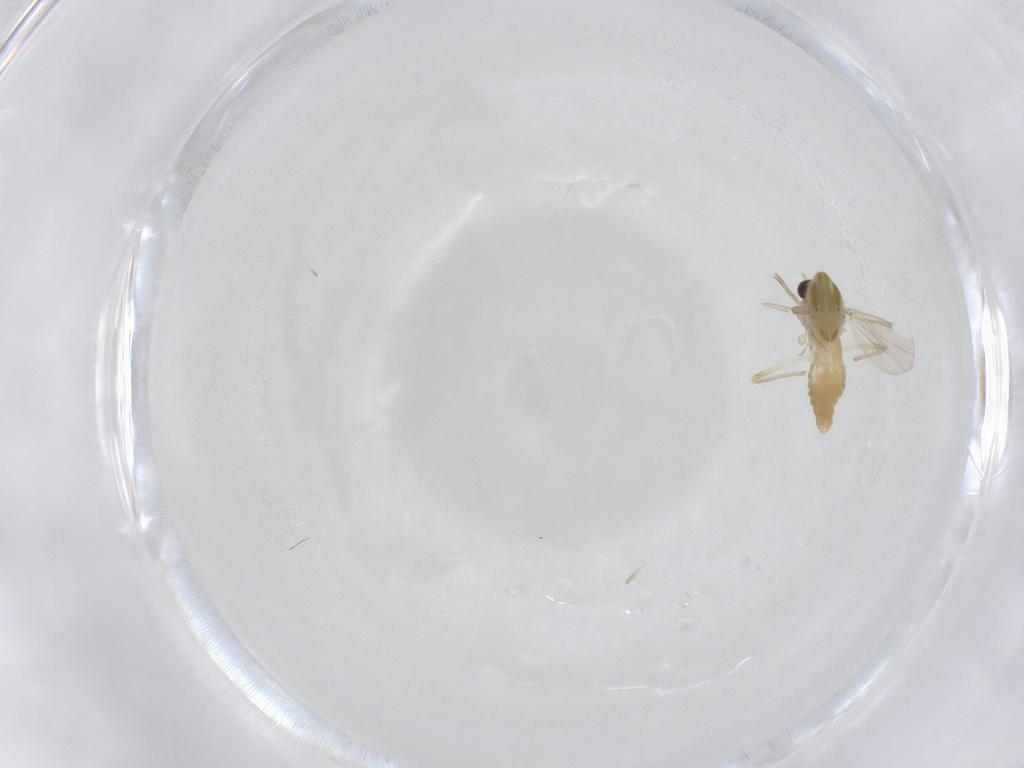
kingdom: Animalia
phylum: Arthropoda
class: Insecta
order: Diptera
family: Chironomidae
